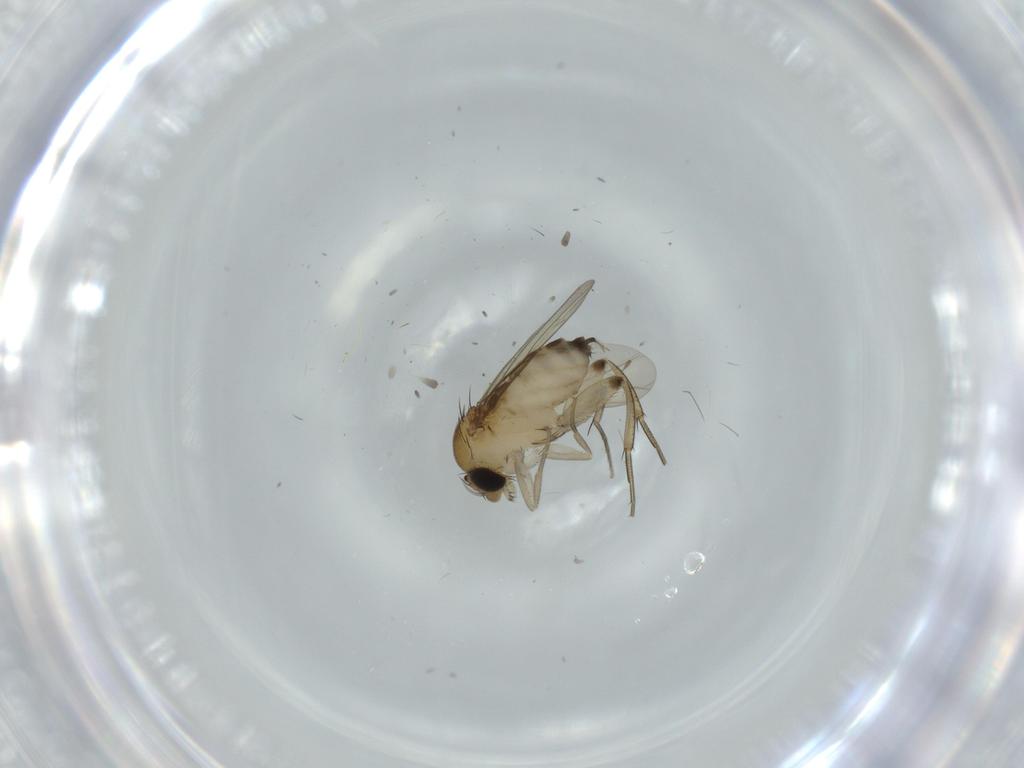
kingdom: Animalia
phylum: Arthropoda
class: Insecta
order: Diptera
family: Phoridae
